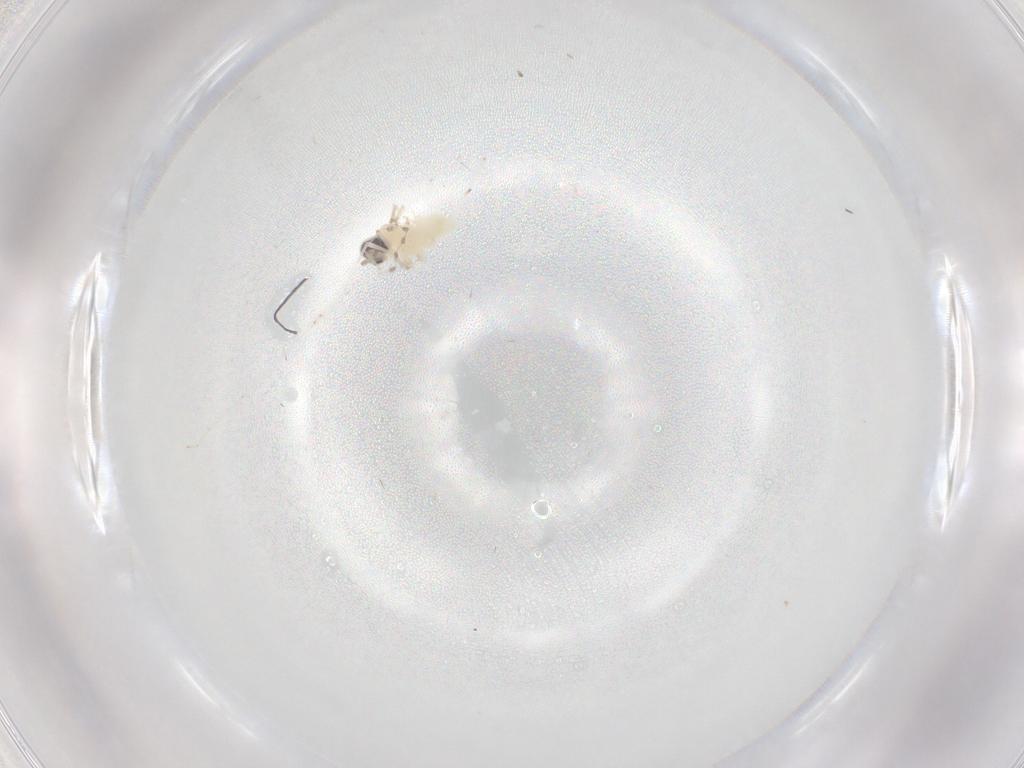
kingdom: Animalia
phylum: Arthropoda
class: Insecta
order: Diptera
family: Cecidomyiidae
